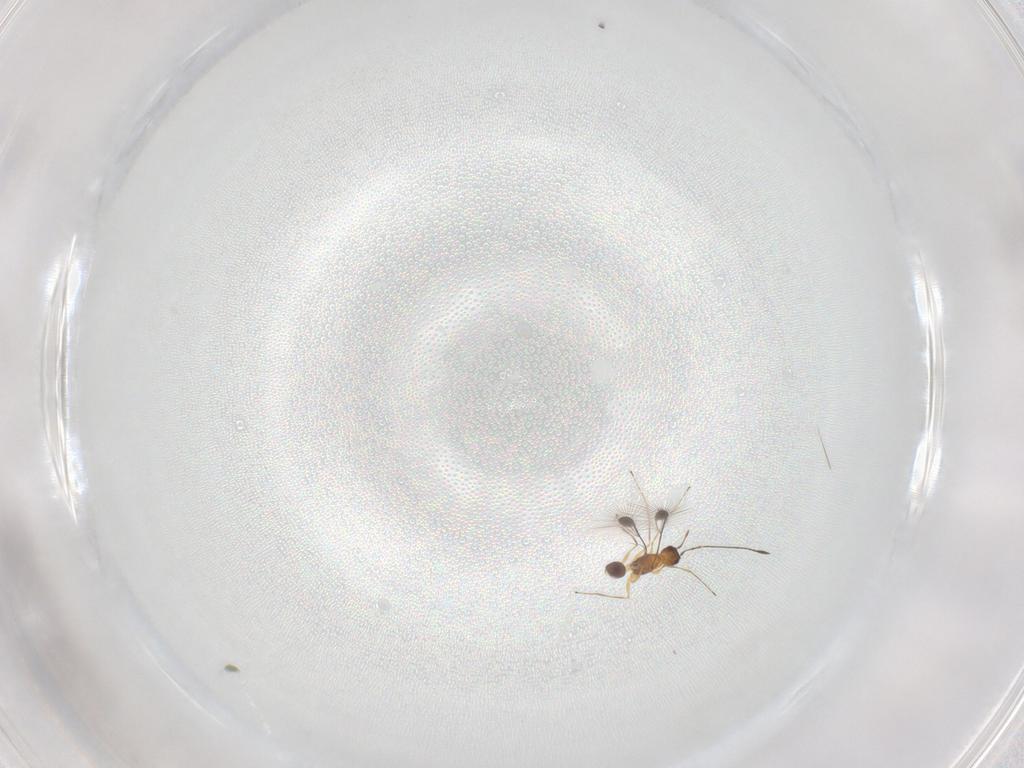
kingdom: Animalia
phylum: Arthropoda
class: Insecta
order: Hymenoptera
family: Mymaridae
